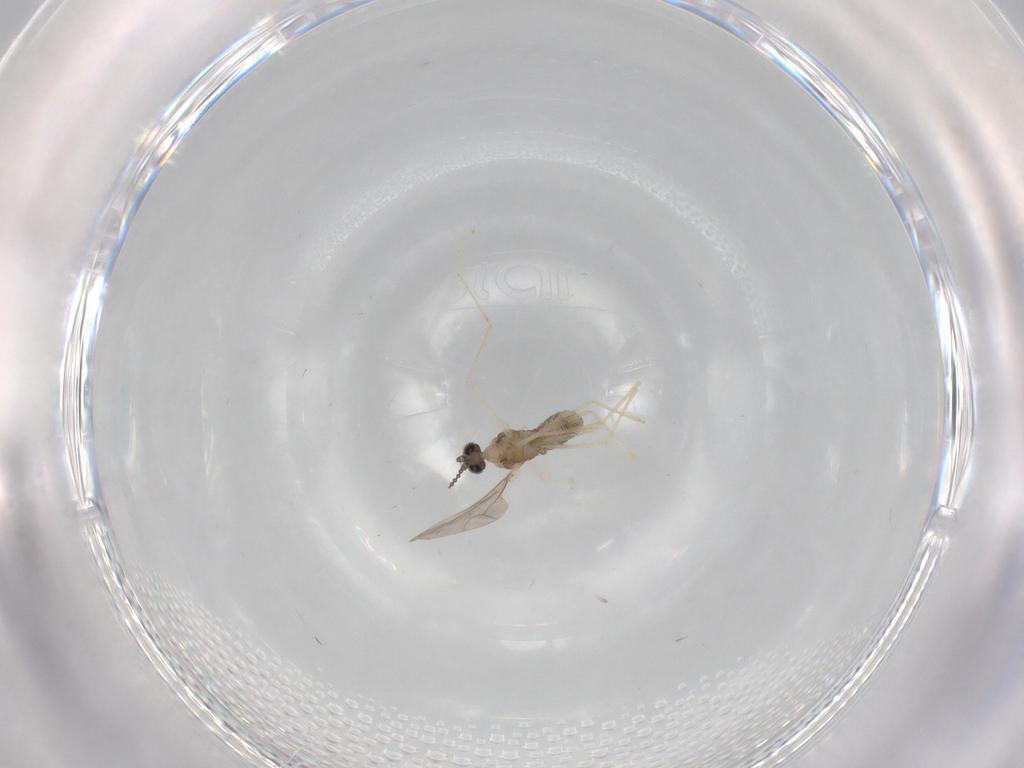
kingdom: Animalia
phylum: Arthropoda
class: Insecta
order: Diptera
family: Cecidomyiidae
